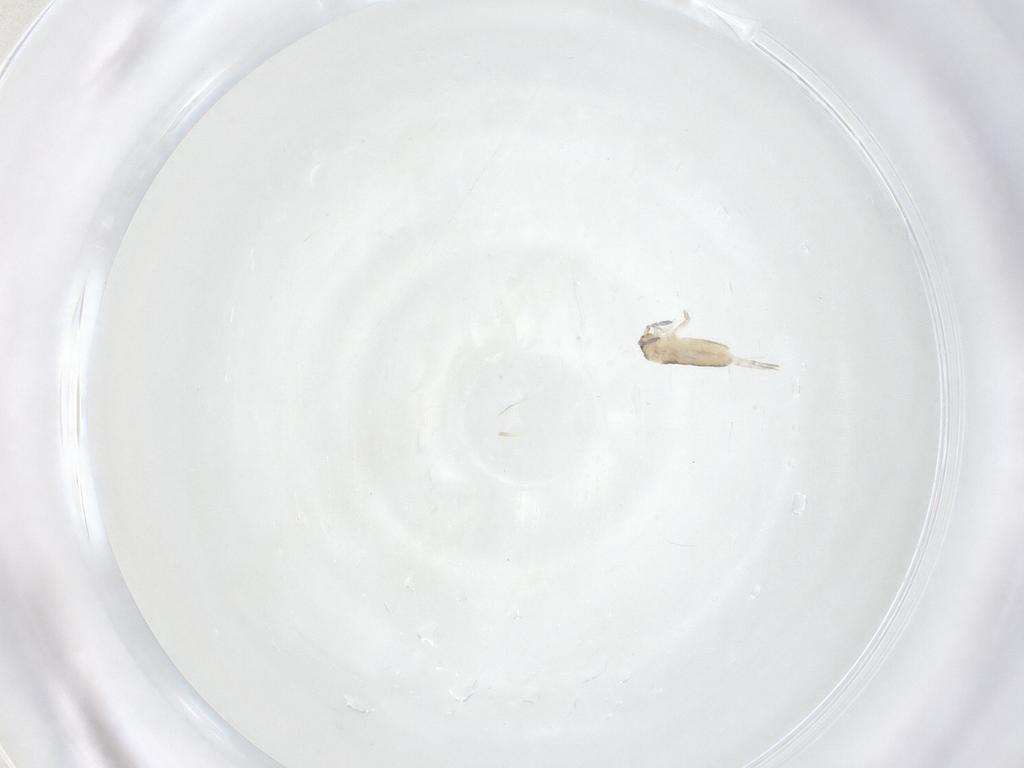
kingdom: Animalia
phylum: Arthropoda
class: Collembola
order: Entomobryomorpha
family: Entomobryidae
